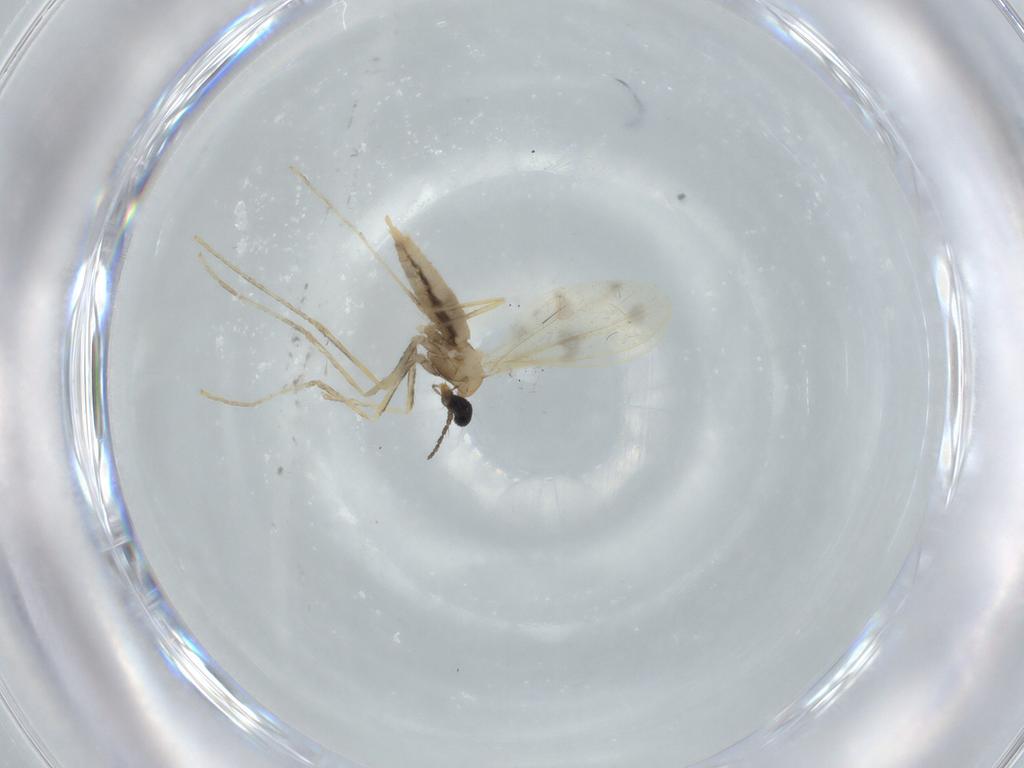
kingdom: Animalia
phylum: Arthropoda
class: Insecta
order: Diptera
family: Cecidomyiidae
